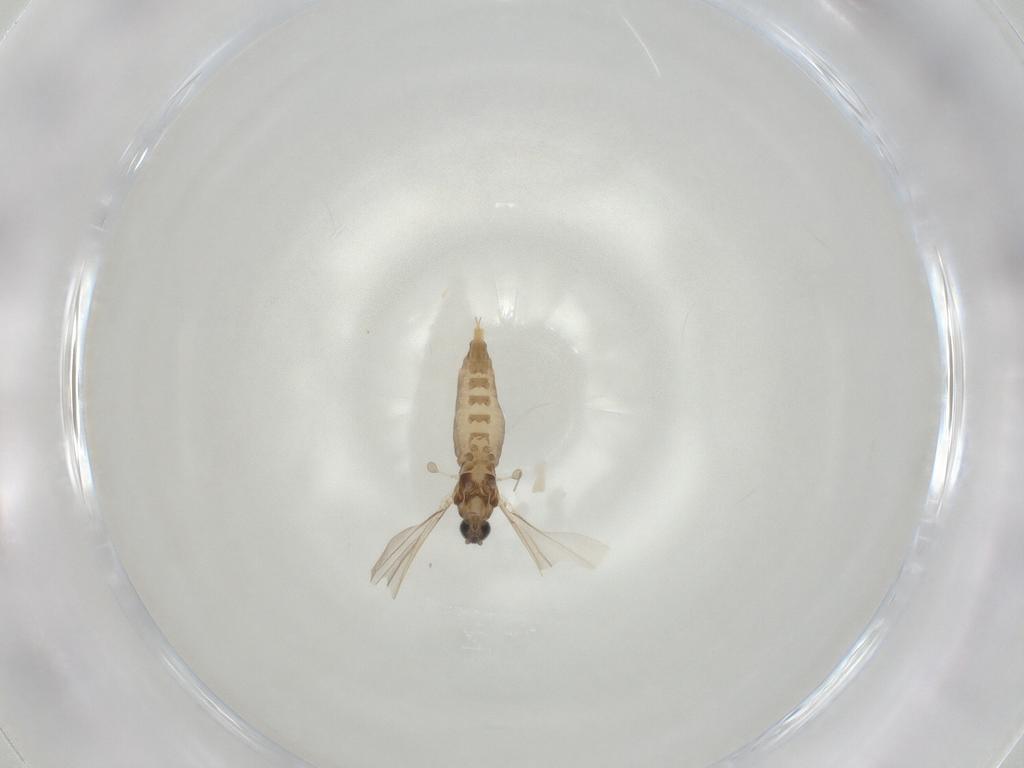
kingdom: Animalia
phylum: Arthropoda
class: Insecta
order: Diptera
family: Cecidomyiidae
